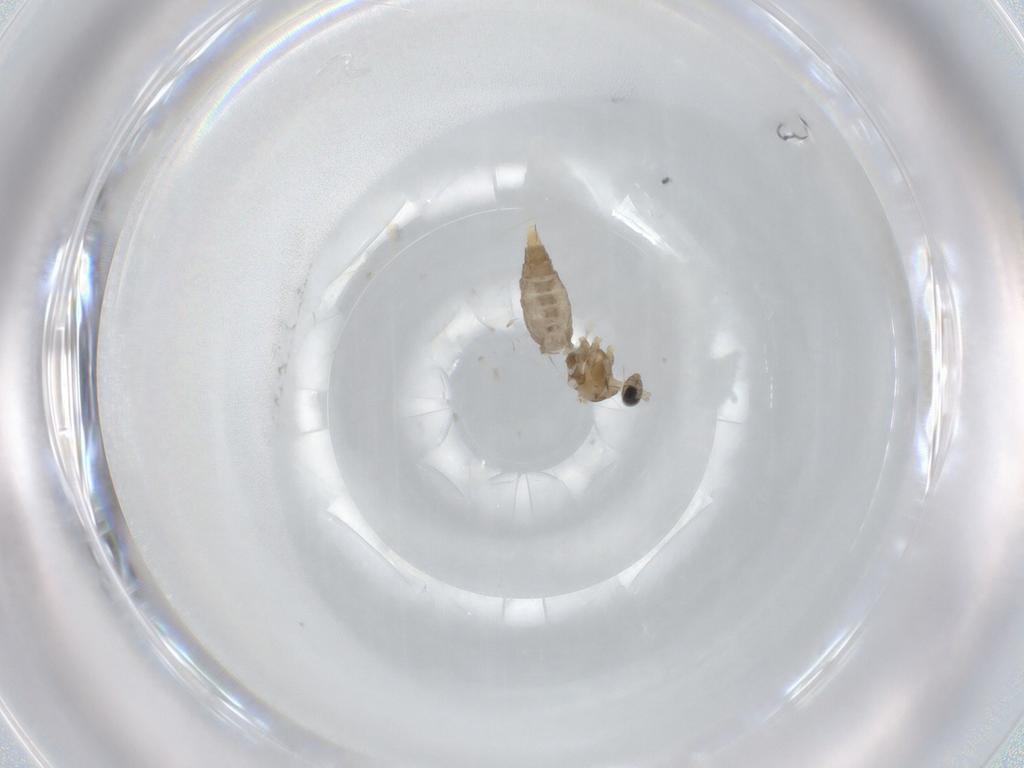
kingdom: Animalia
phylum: Arthropoda
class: Insecta
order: Diptera
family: Cecidomyiidae
